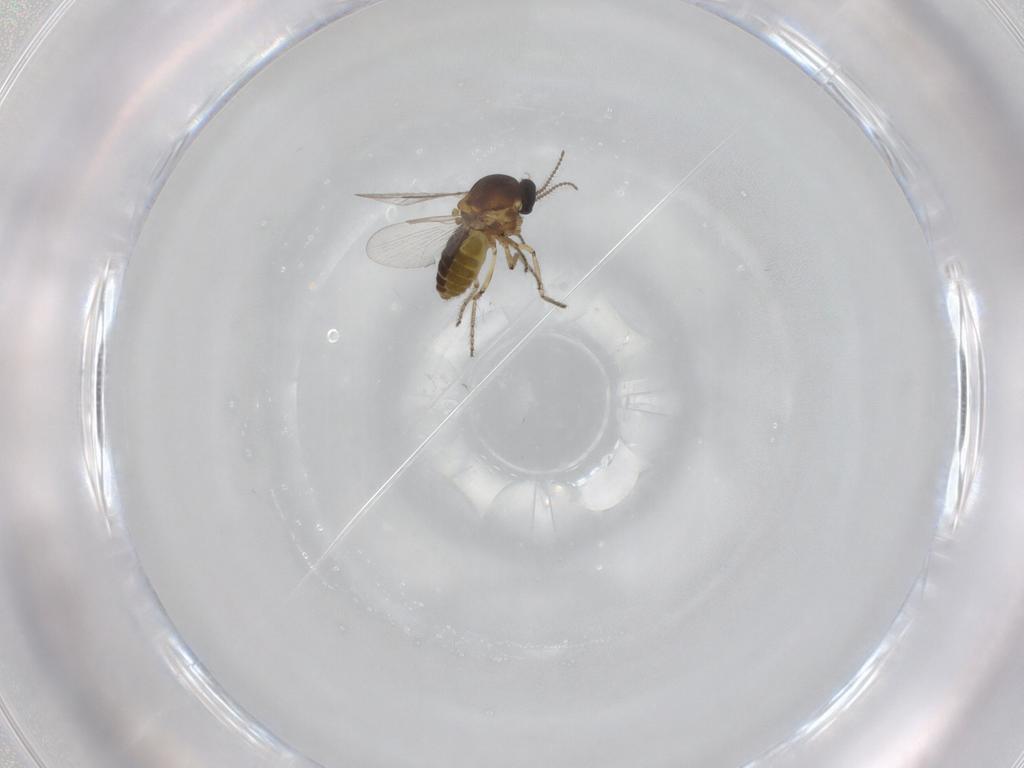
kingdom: Animalia
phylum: Arthropoda
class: Insecta
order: Diptera
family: Ceratopogonidae
